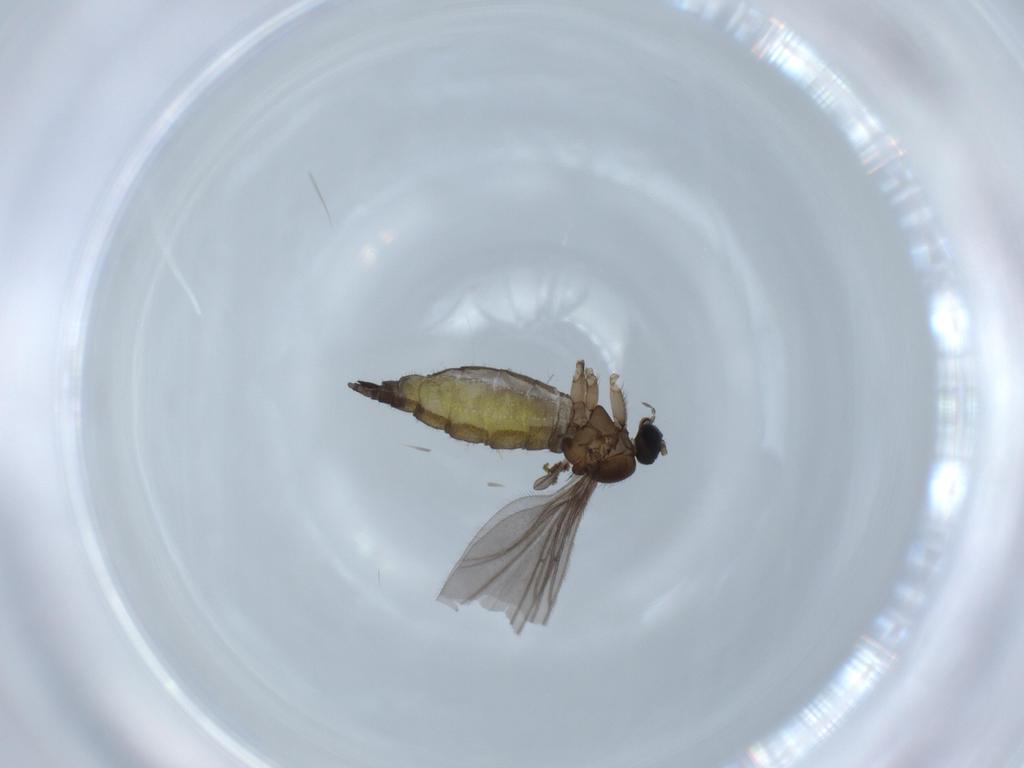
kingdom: Animalia
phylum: Arthropoda
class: Insecta
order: Diptera
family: Sciaridae
